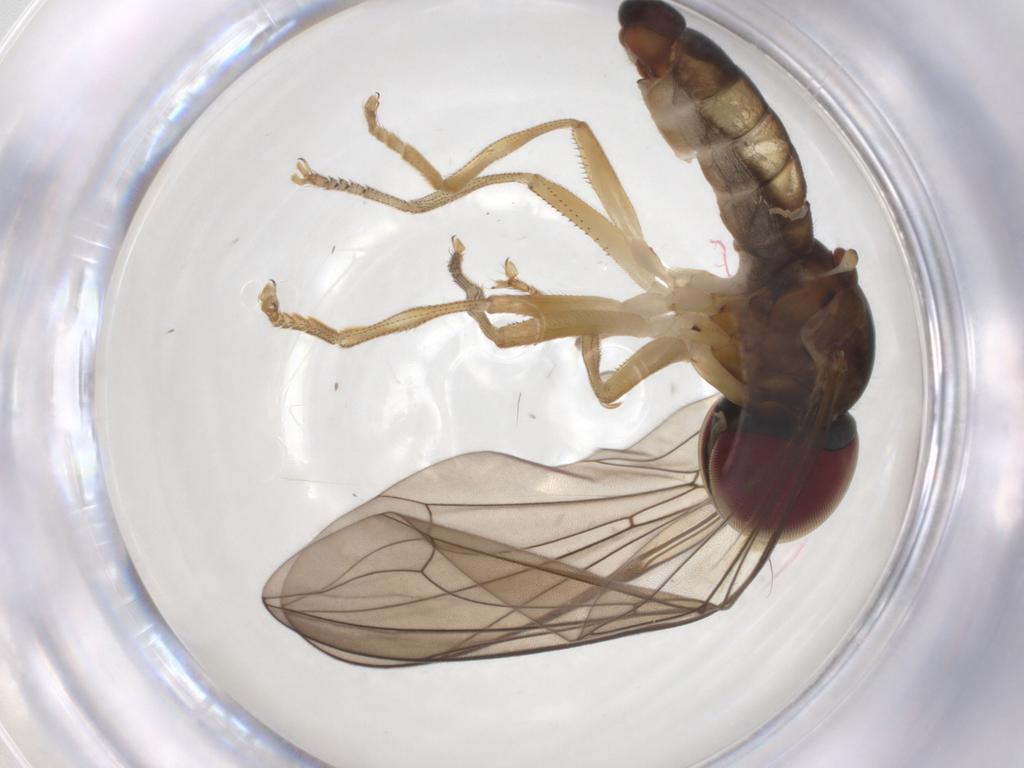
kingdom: Animalia
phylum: Arthropoda
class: Insecta
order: Diptera
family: Pipunculidae
